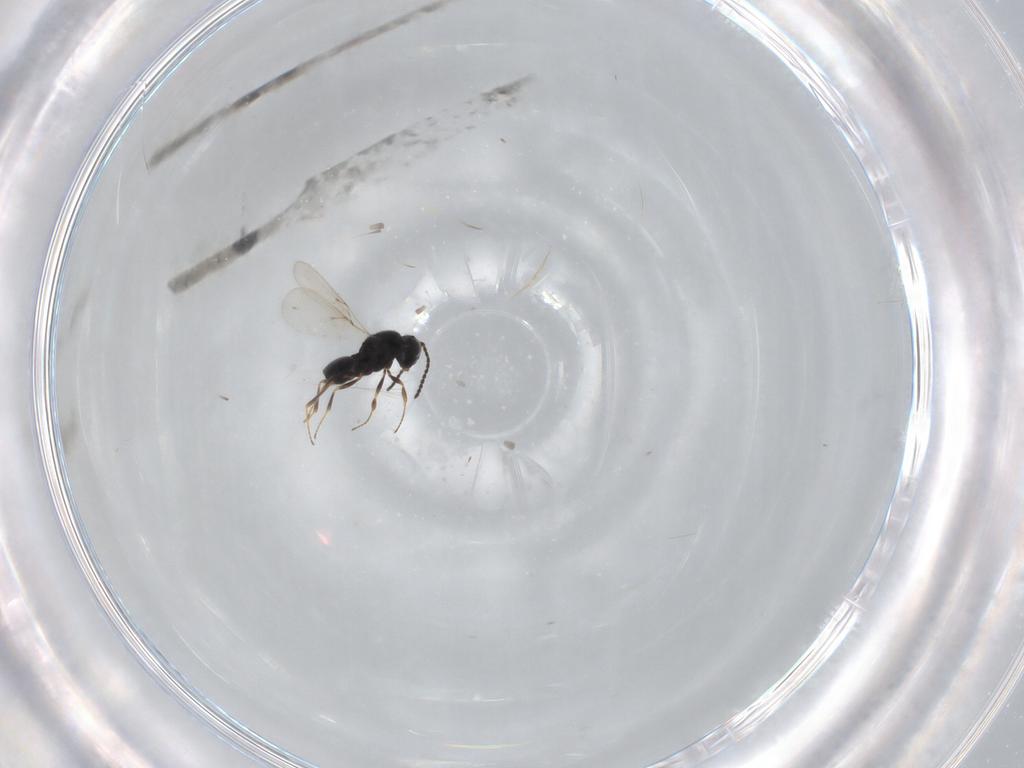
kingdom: Animalia
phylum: Arthropoda
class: Insecta
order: Hymenoptera
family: Scelionidae
